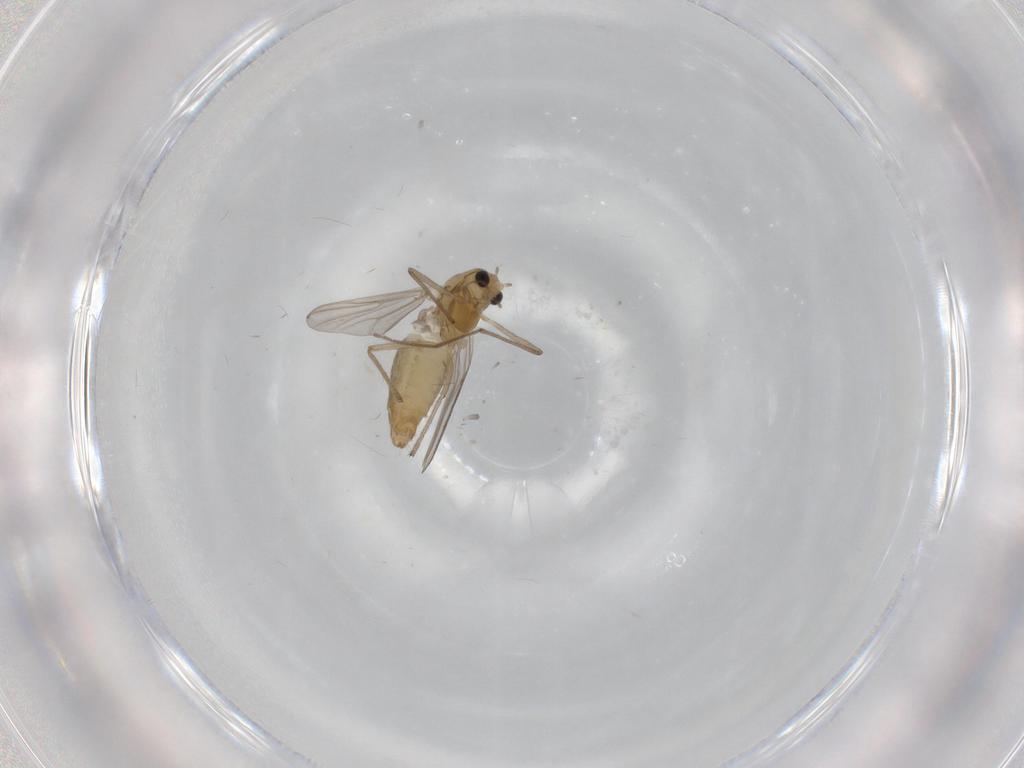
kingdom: Animalia
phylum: Arthropoda
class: Insecta
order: Diptera
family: Chironomidae
